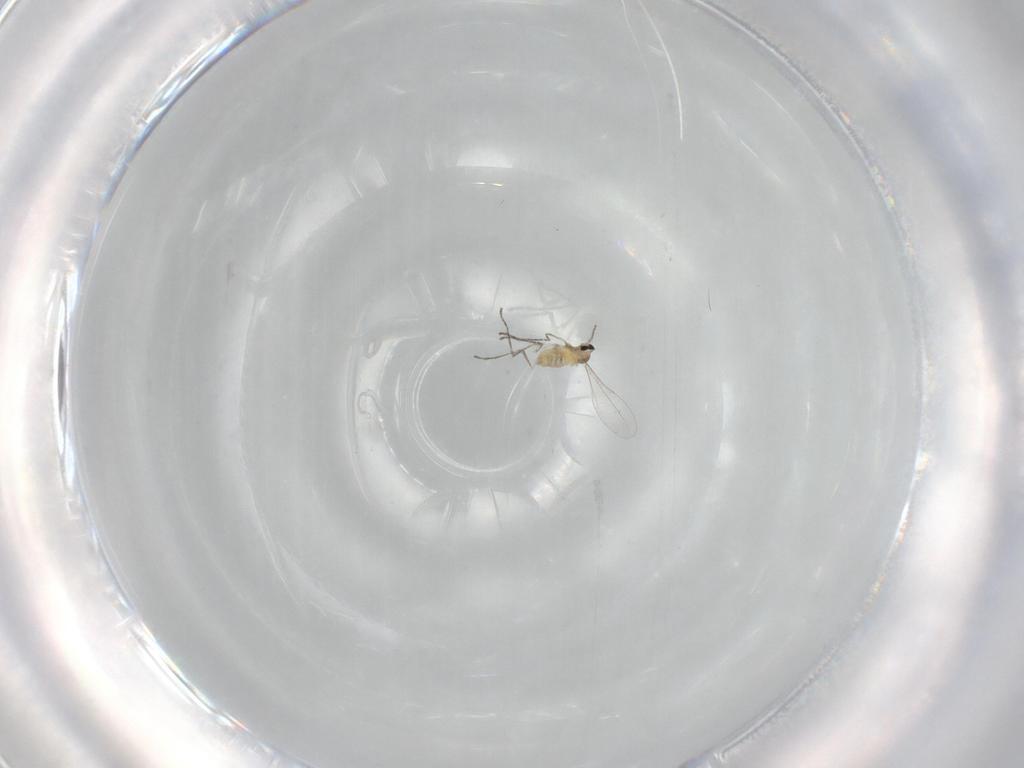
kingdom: Animalia
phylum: Arthropoda
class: Insecta
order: Diptera
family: Cecidomyiidae
